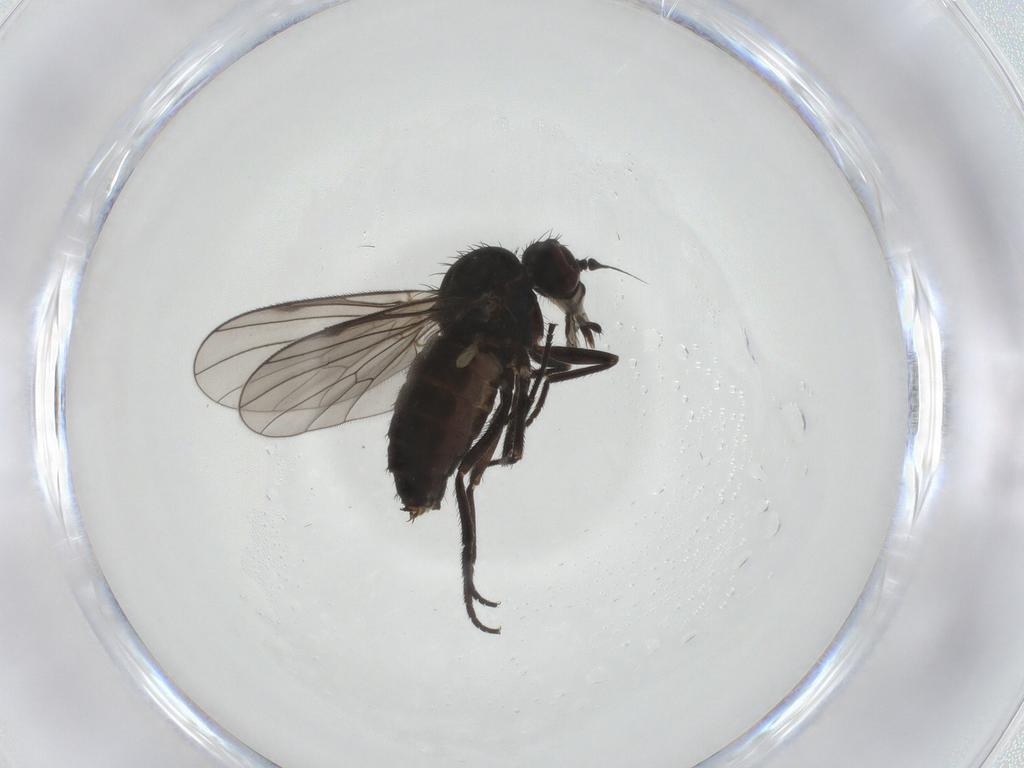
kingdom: Animalia
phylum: Arthropoda
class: Insecta
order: Diptera
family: Dolichopodidae
